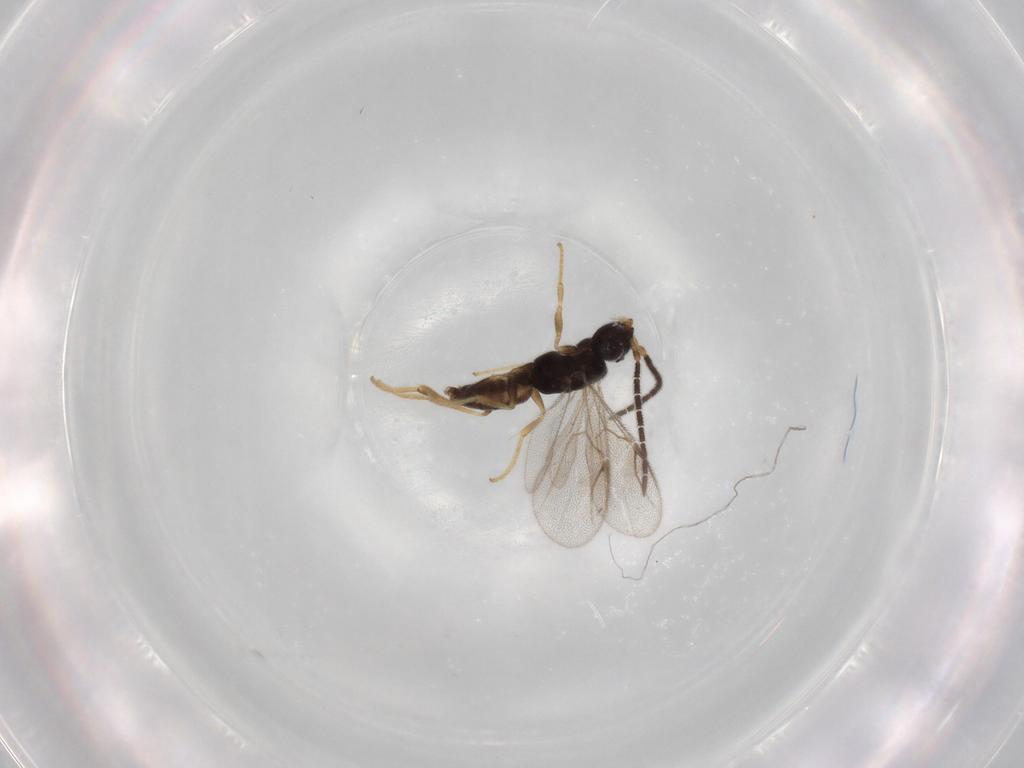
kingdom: Animalia
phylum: Arthropoda
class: Insecta
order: Hymenoptera
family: Dryinidae
